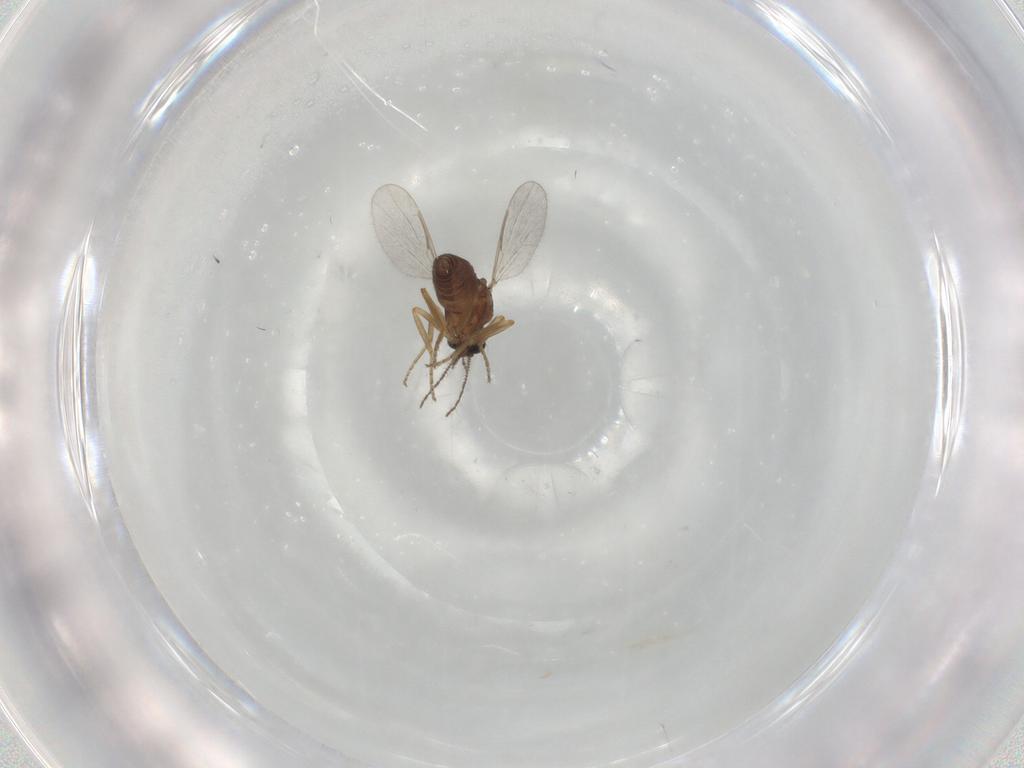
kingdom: Animalia
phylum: Arthropoda
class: Insecta
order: Diptera
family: Ceratopogonidae
